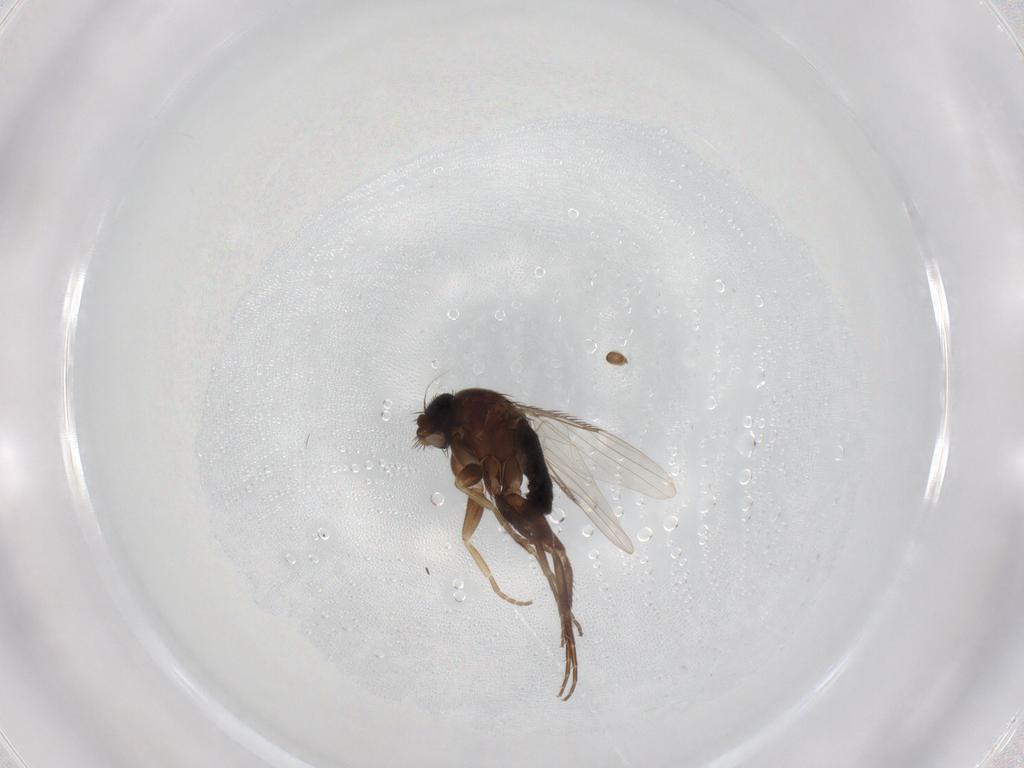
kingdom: Animalia
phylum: Arthropoda
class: Insecta
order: Diptera
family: Phoridae
